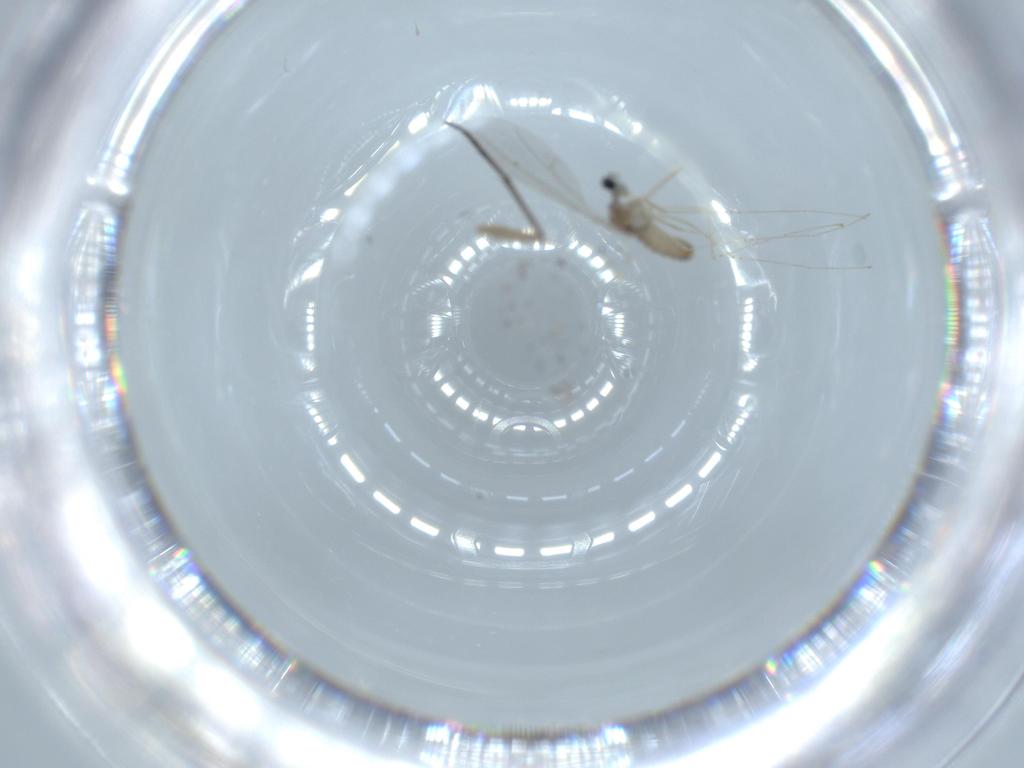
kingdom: Animalia
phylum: Arthropoda
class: Insecta
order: Diptera
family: Cecidomyiidae
